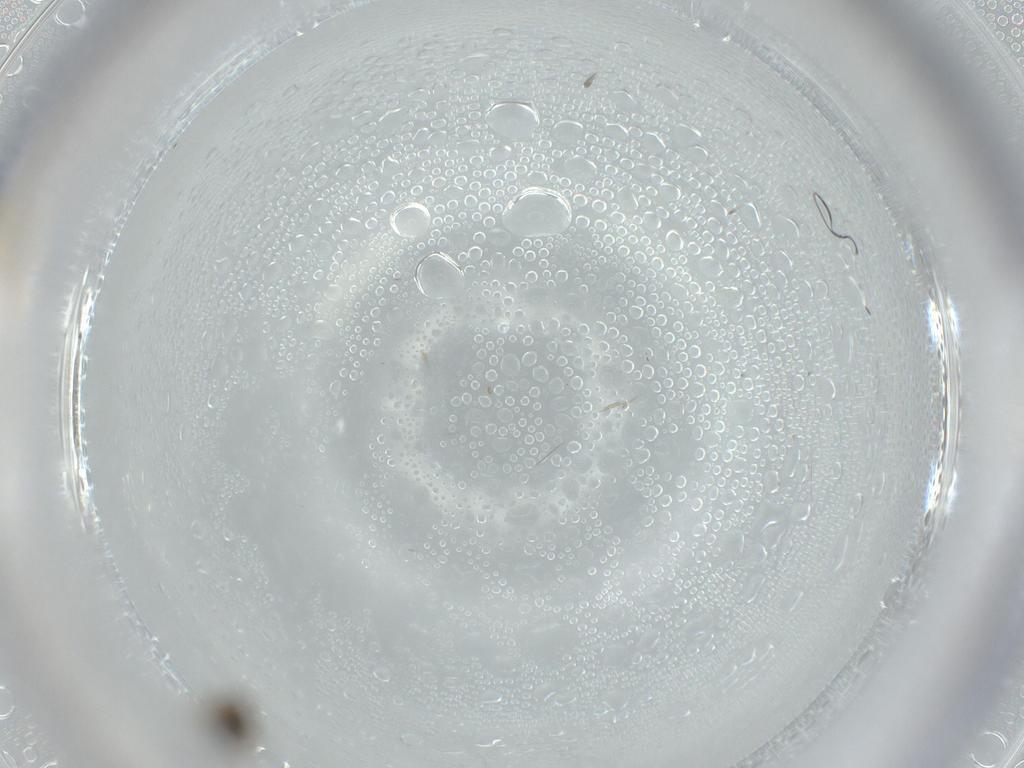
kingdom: Animalia
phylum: Arthropoda
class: Insecta
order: Diptera
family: Phoridae
